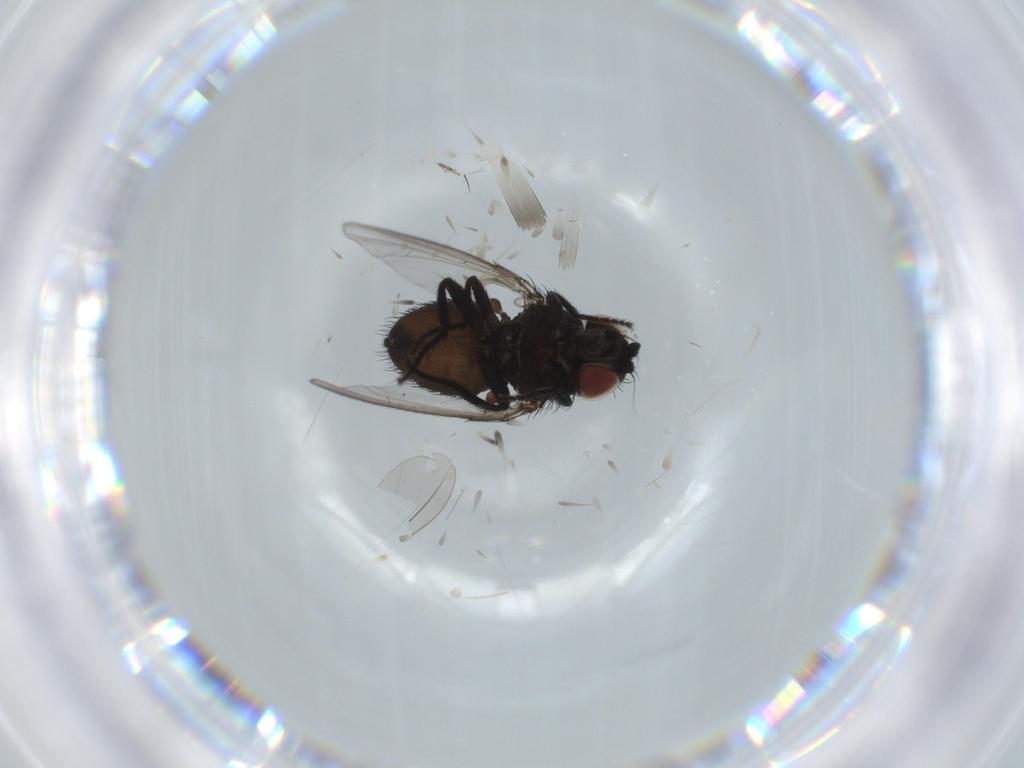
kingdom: Animalia
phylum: Arthropoda
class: Insecta
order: Diptera
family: Milichiidae
